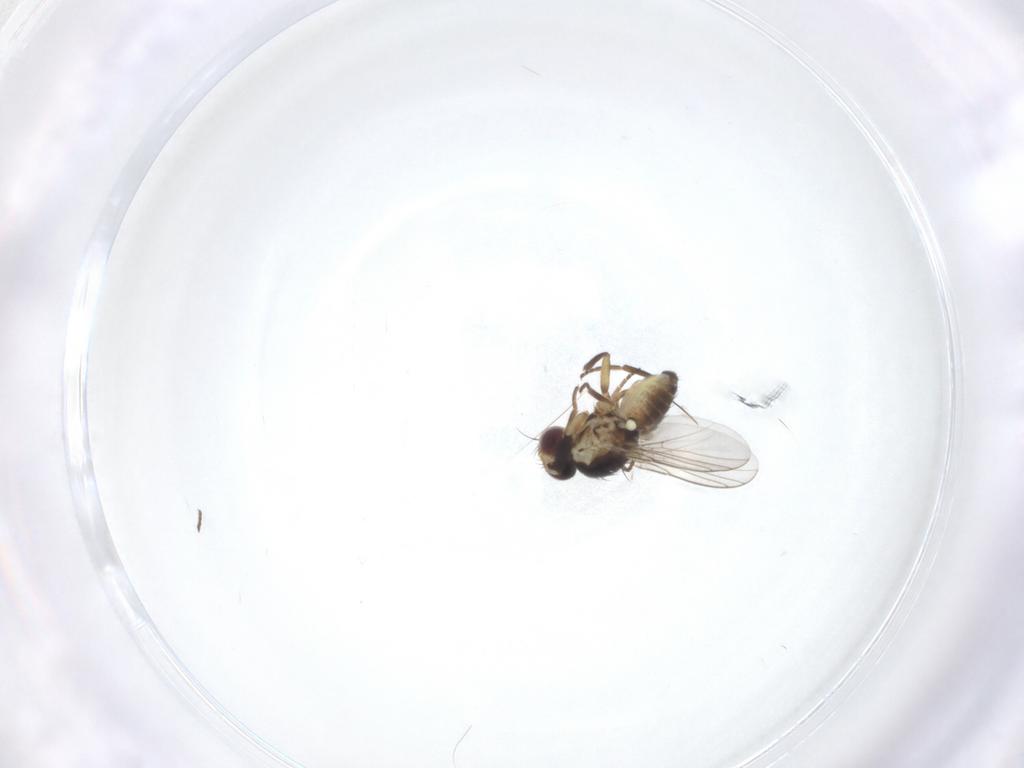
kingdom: Animalia
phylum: Arthropoda
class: Insecta
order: Diptera
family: Agromyzidae
